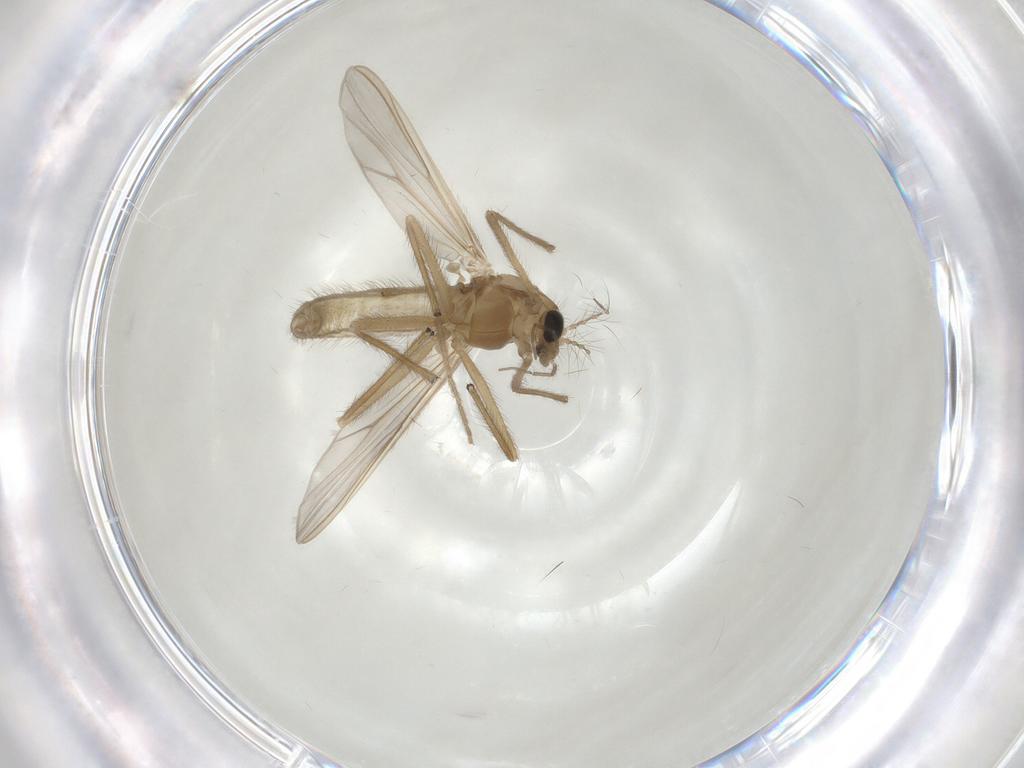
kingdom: Animalia
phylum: Arthropoda
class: Insecta
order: Diptera
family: Chironomidae
